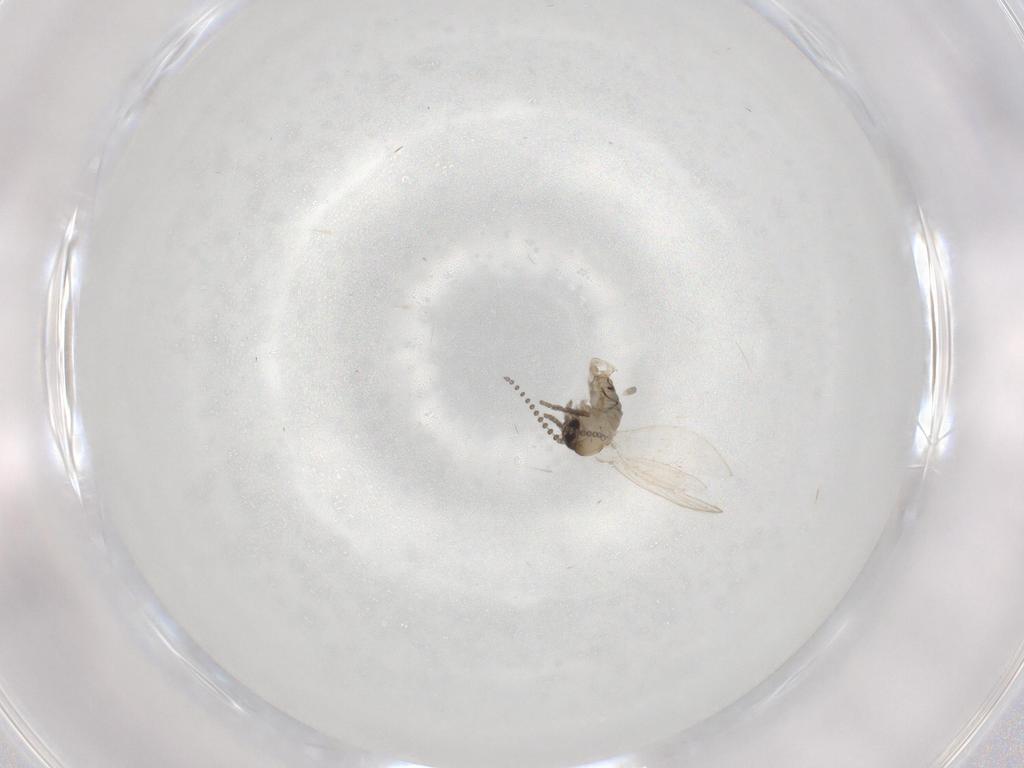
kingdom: Animalia
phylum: Arthropoda
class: Insecta
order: Diptera
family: Psychodidae
